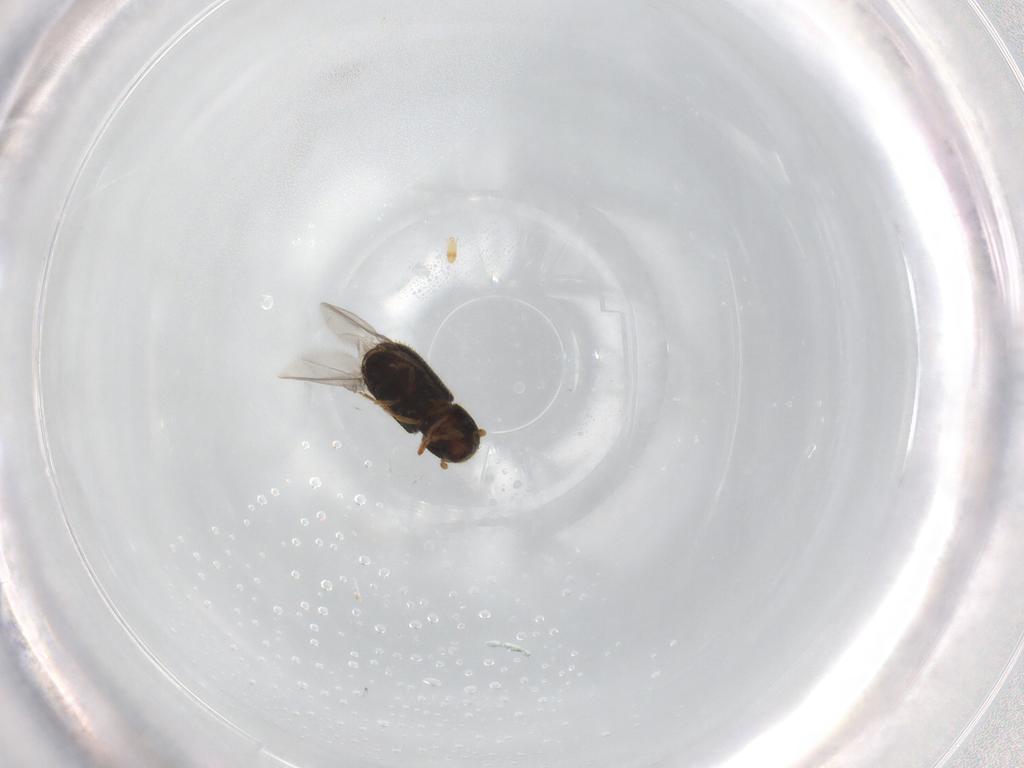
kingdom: Animalia
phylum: Arthropoda
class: Insecta
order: Coleoptera
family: Curculionidae
